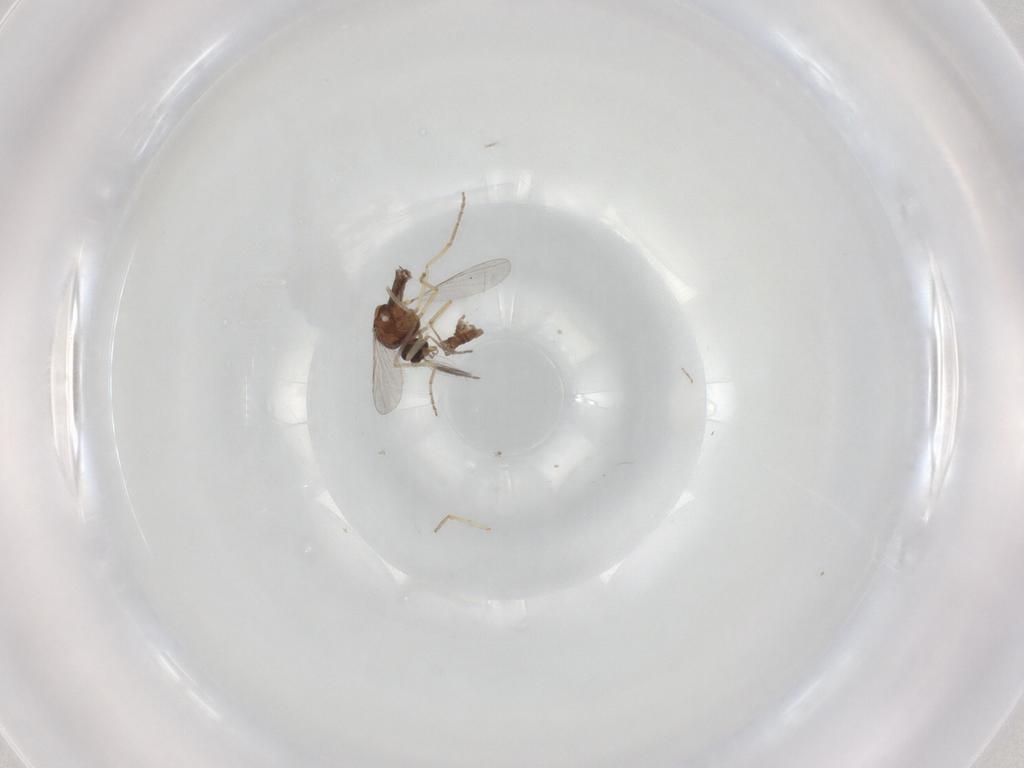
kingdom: Animalia
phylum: Arthropoda
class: Insecta
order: Diptera
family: Ceratopogonidae
